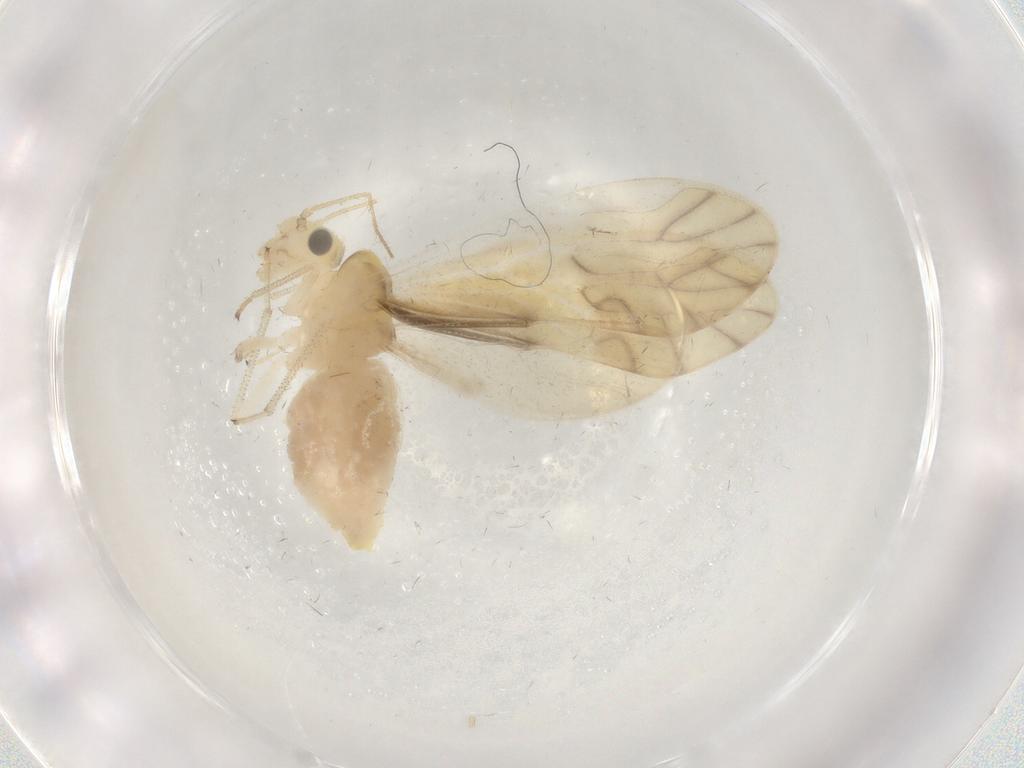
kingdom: Animalia
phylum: Arthropoda
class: Insecta
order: Psocodea
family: Caeciliusidae
